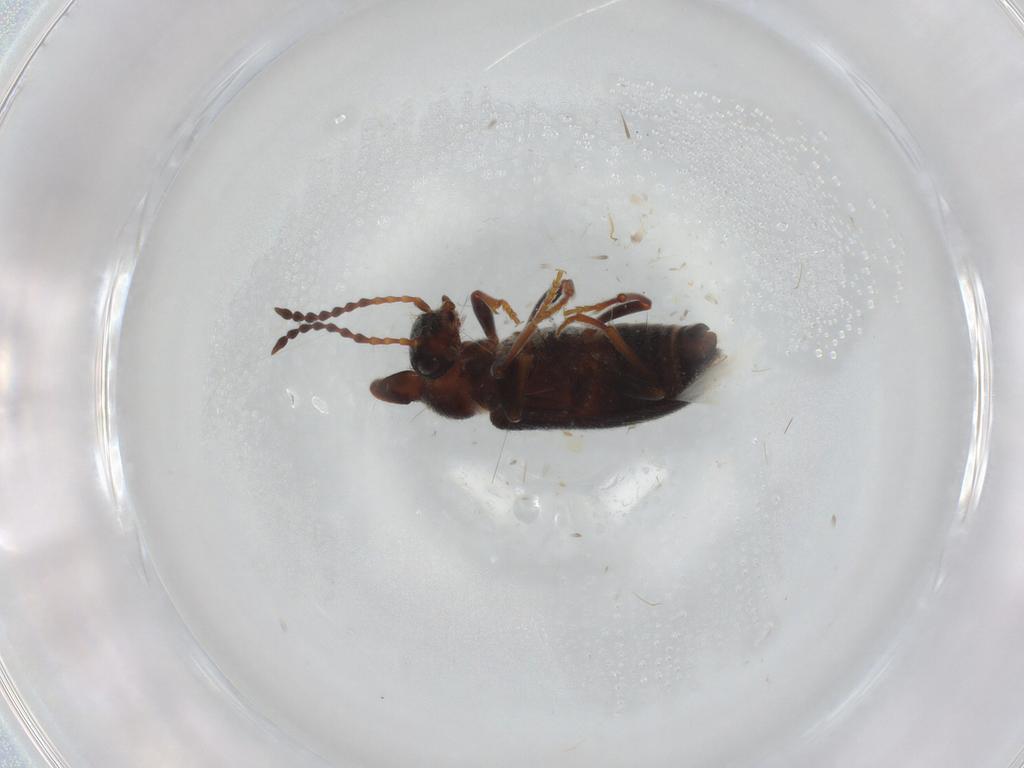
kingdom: Animalia
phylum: Arthropoda
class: Insecta
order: Coleoptera
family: Anthicidae
